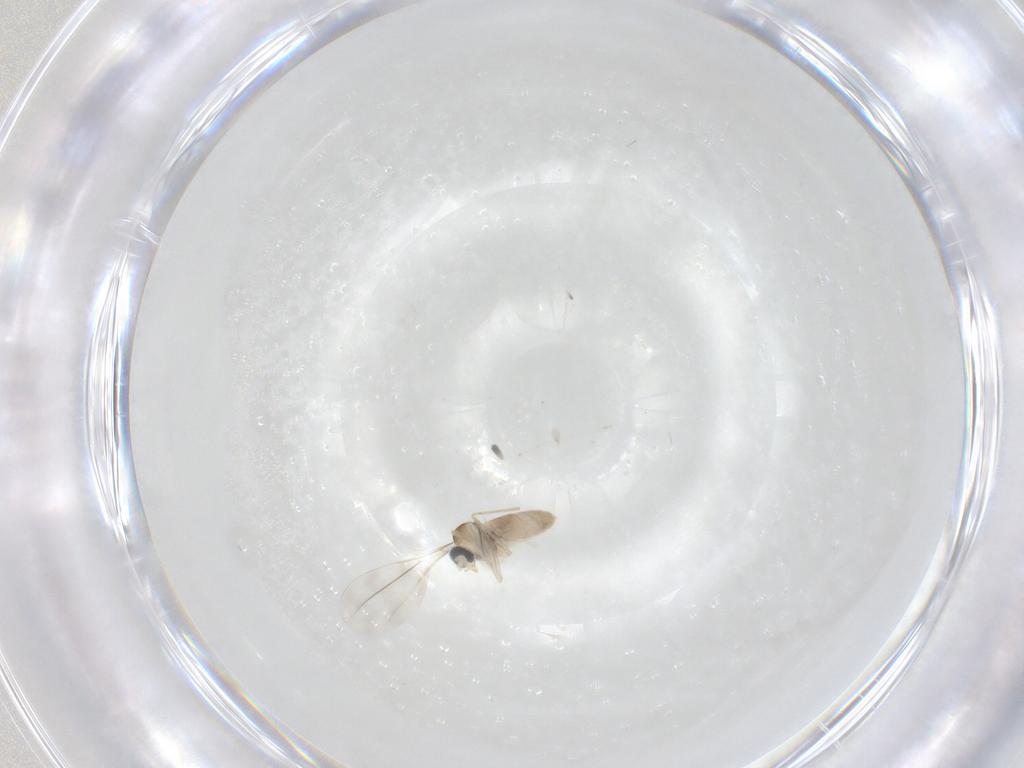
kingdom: Animalia
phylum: Arthropoda
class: Insecta
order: Diptera
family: Cecidomyiidae
